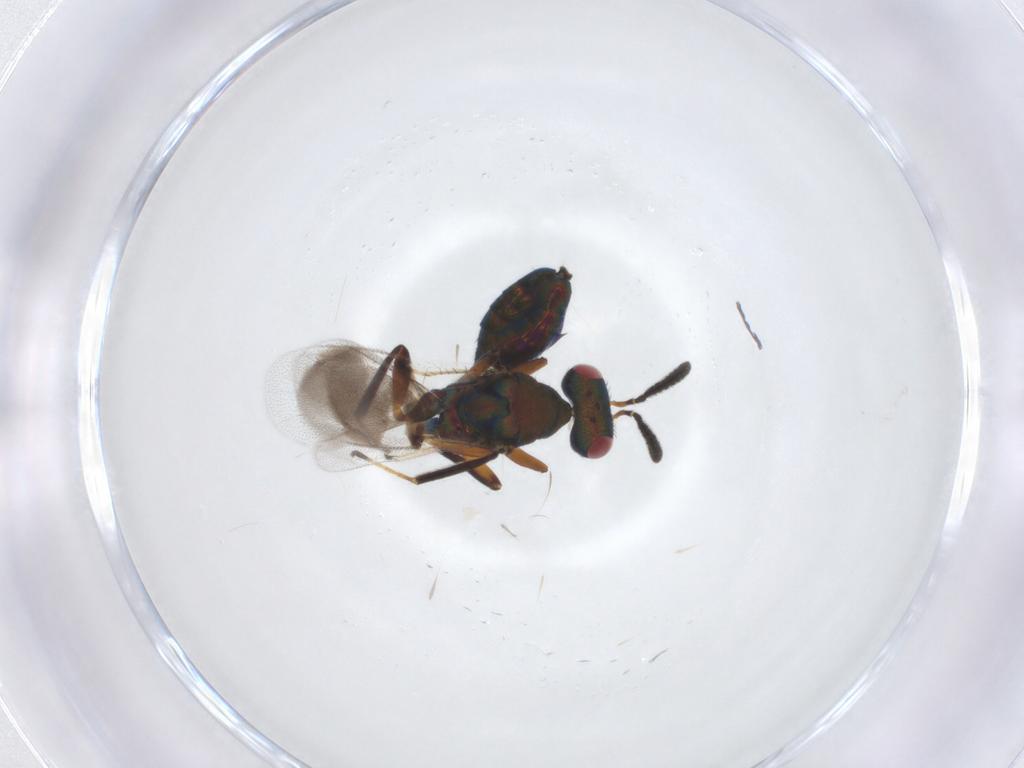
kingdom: Animalia
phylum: Arthropoda
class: Insecta
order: Hymenoptera
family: Pteromalidae
